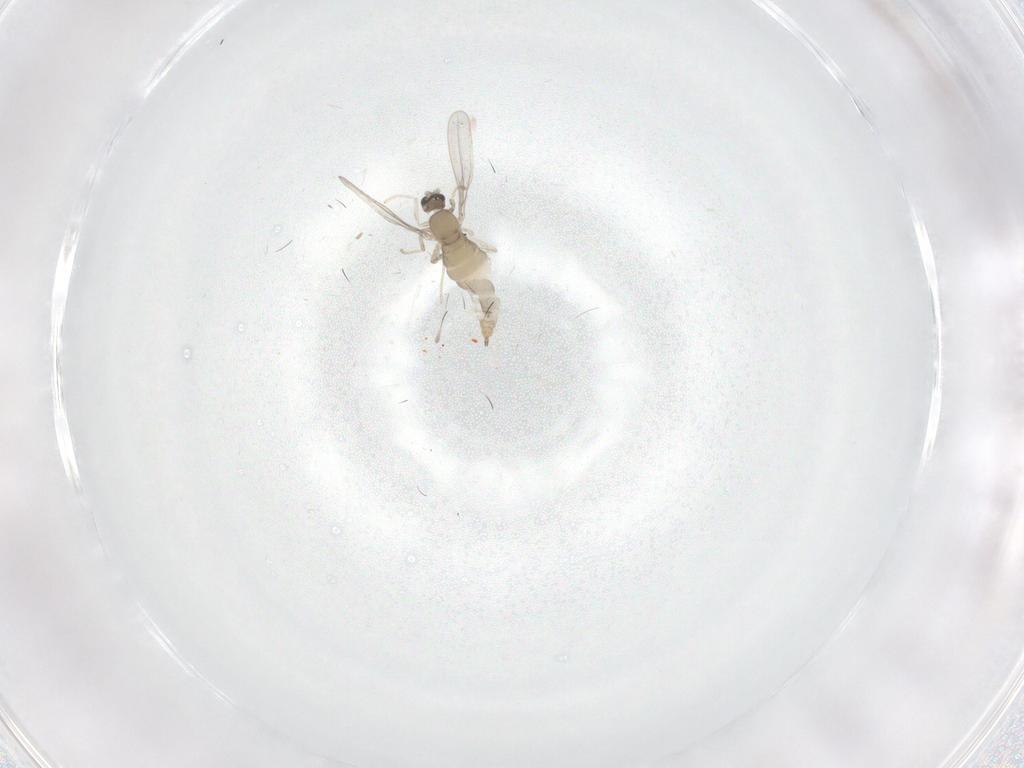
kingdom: Animalia
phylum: Arthropoda
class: Insecta
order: Diptera
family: Cecidomyiidae
